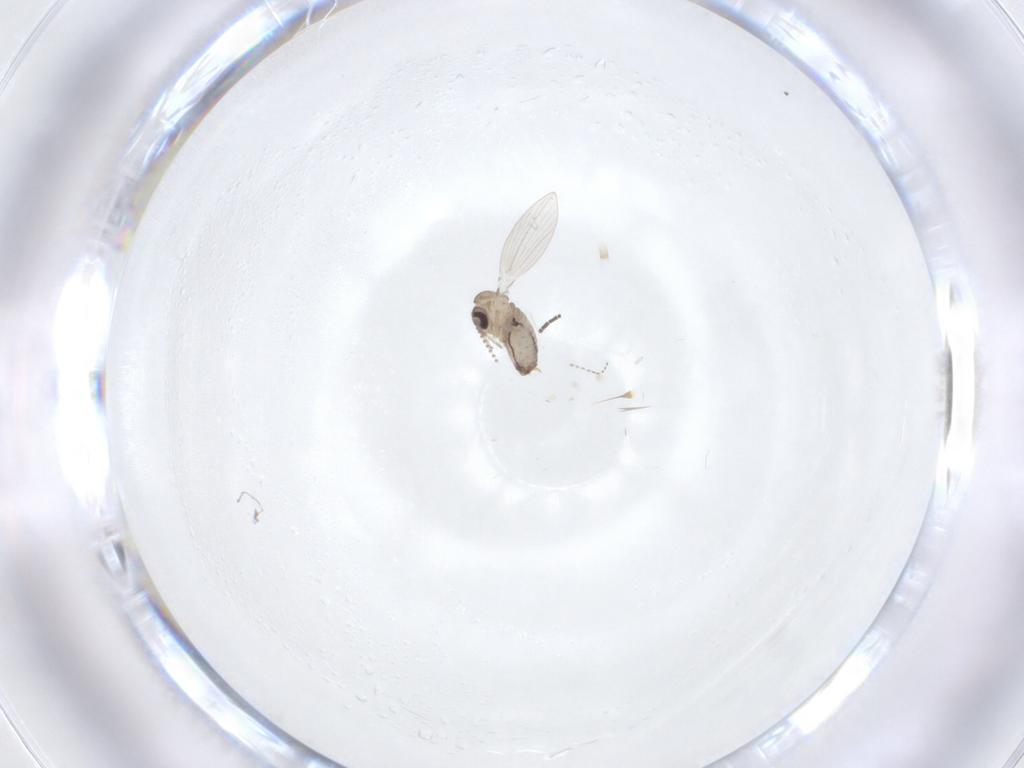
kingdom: Animalia
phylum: Arthropoda
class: Insecta
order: Diptera
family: Psychodidae
